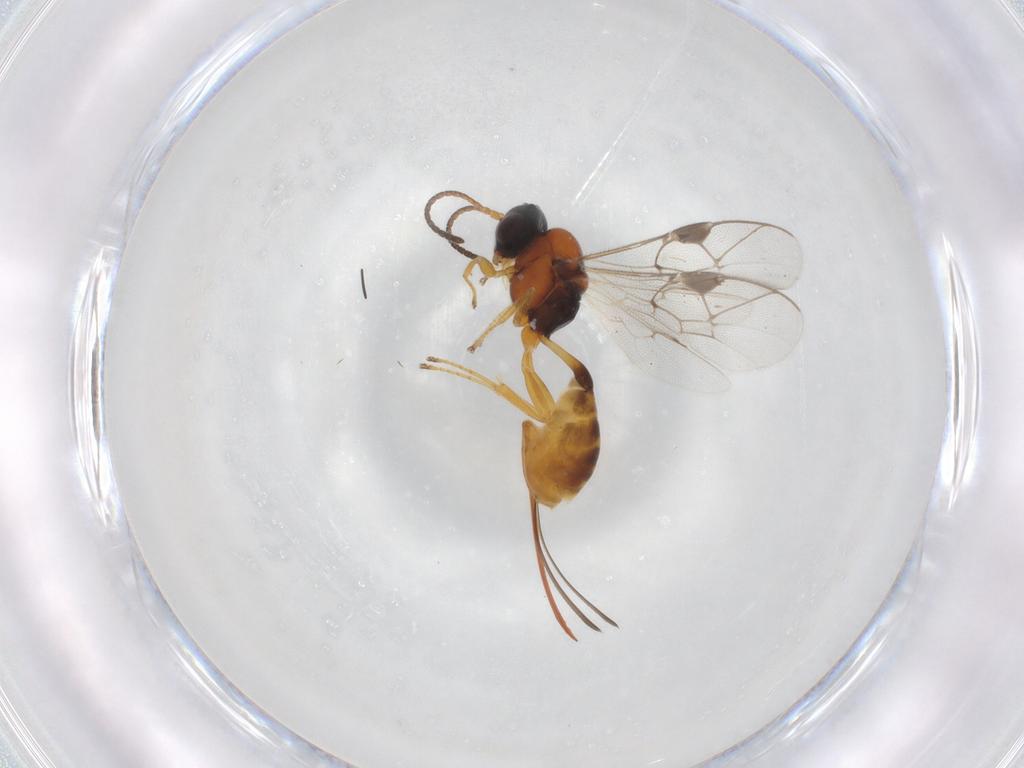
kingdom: Animalia
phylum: Arthropoda
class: Insecta
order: Hymenoptera
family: Ichneumonidae
